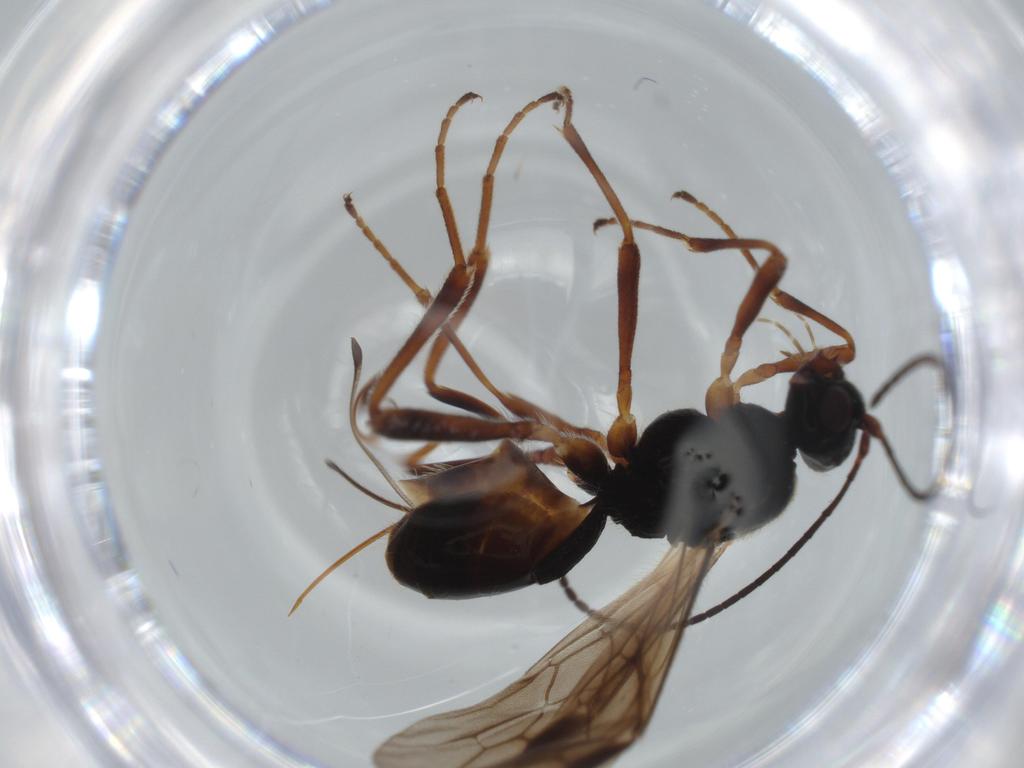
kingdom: Animalia
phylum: Arthropoda
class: Insecta
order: Hymenoptera
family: Braconidae
